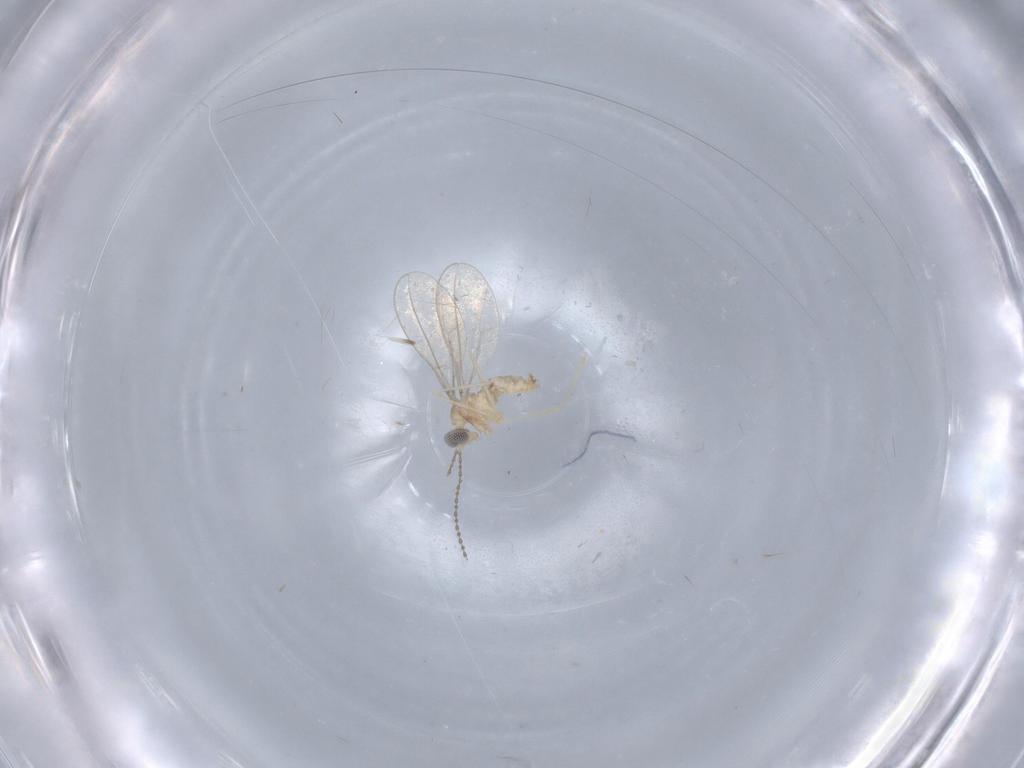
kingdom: Animalia
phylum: Arthropoda
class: Insecta
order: Diptera
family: Cecidomyiidae
